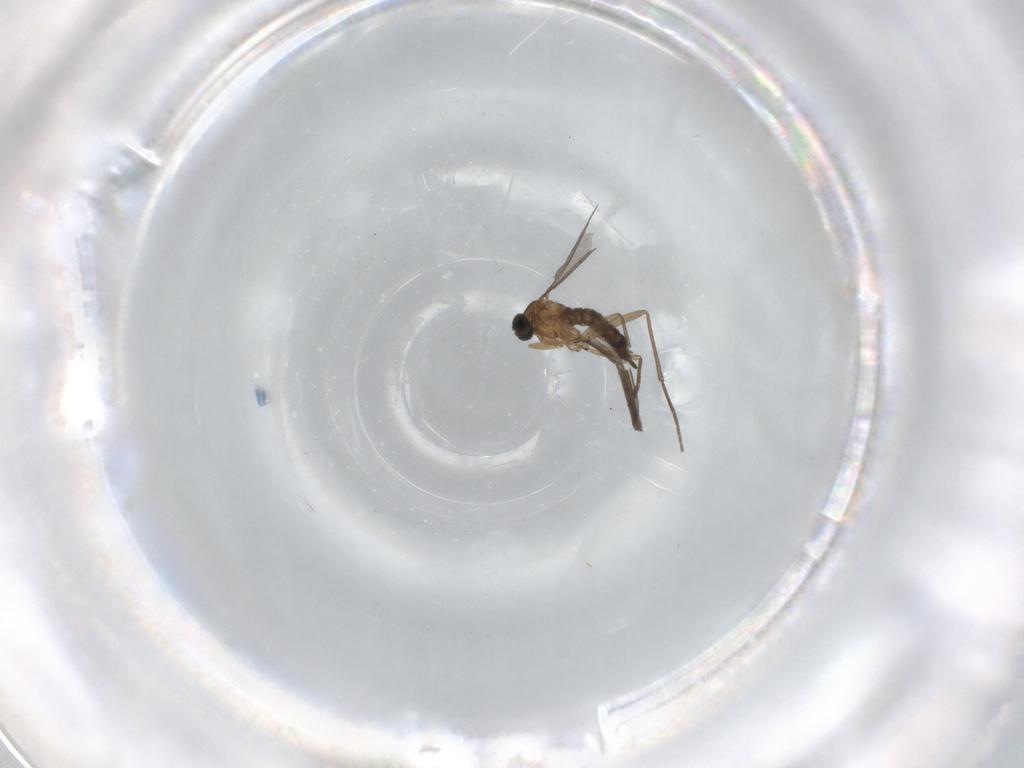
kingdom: Animalia
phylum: Arthropoda
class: Insecta
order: Diptera
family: Sciaridae
